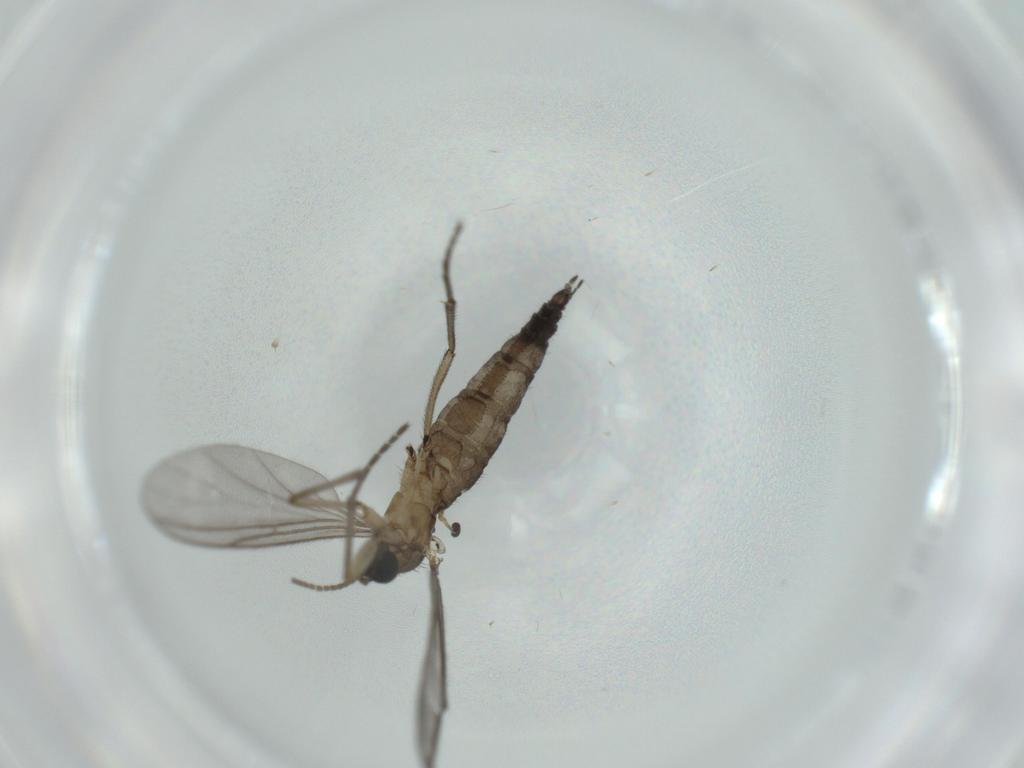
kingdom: Animalia
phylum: Arthropoda
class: Insecta
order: Diptera
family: Sciaridae
